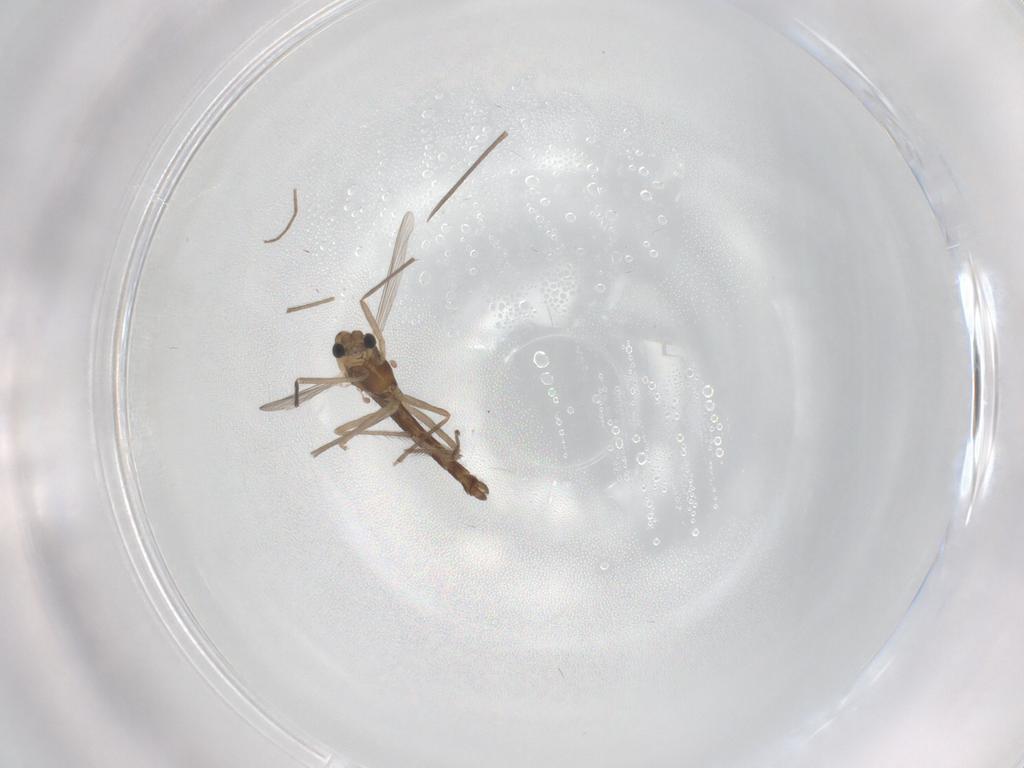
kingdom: Animalia
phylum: Arthropoda
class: Insecta
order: Diptera
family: Chironomidae
